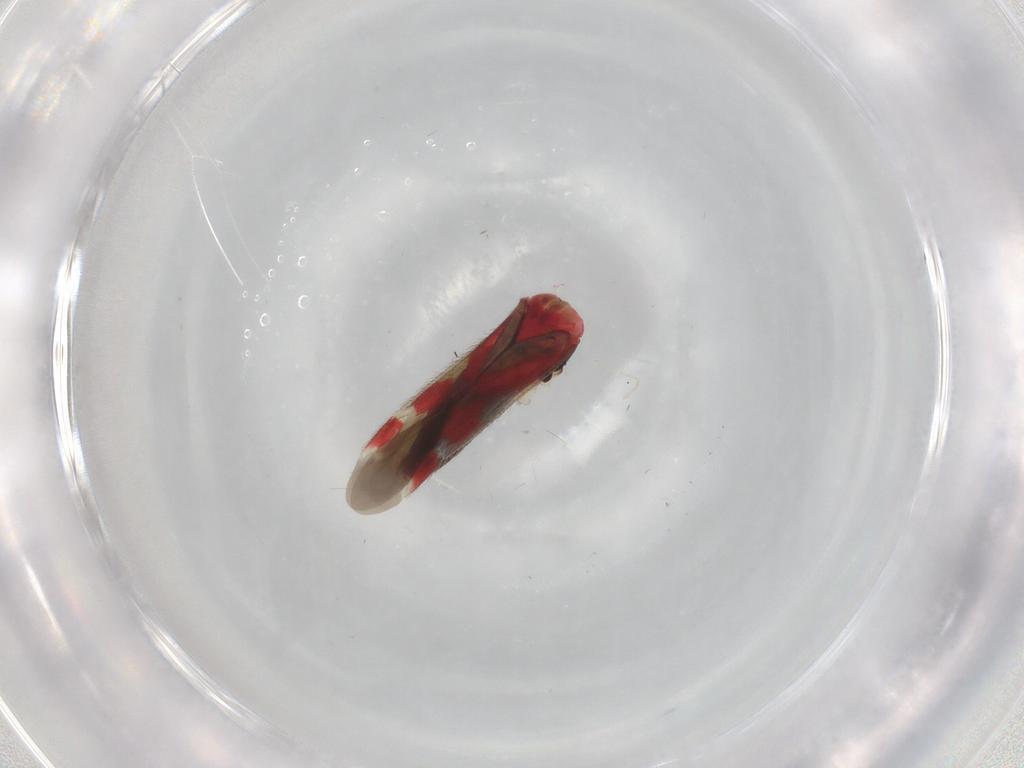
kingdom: Animalia
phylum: Arthropoda
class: Insecta
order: Hemiptera
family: Miridae
